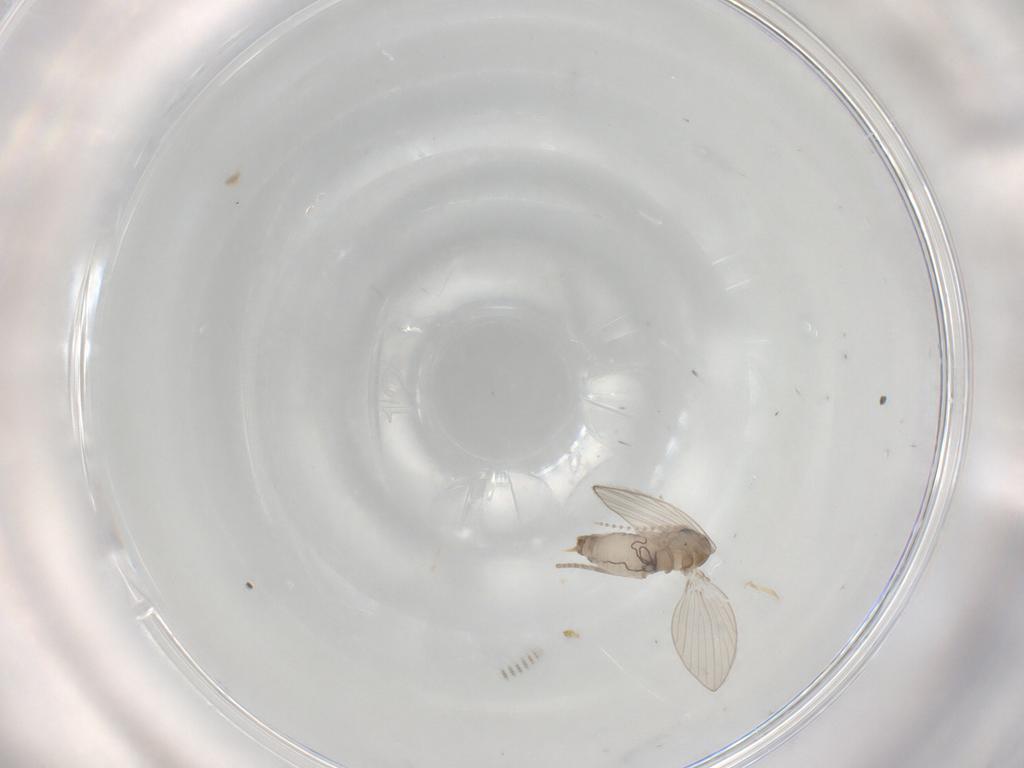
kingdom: Animalia
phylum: Arthropoda
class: Insecta
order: Diptera
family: Psychodidae
